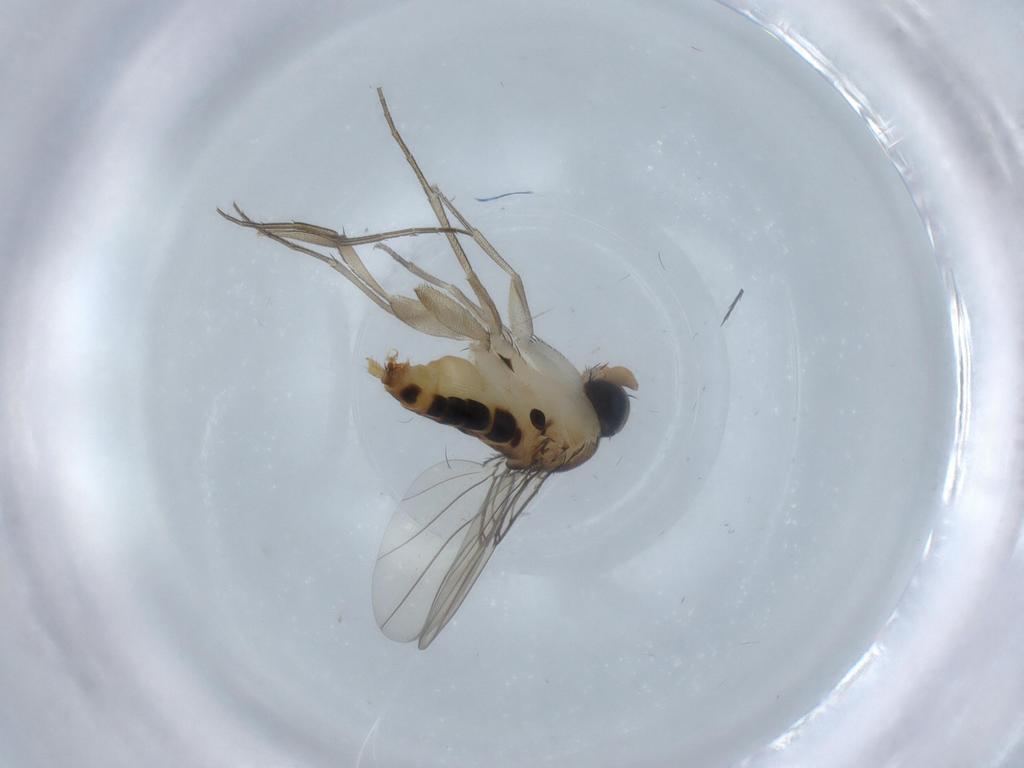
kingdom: Animalia
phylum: Arthropoda
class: Insecta
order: Diptera
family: Phoridae
